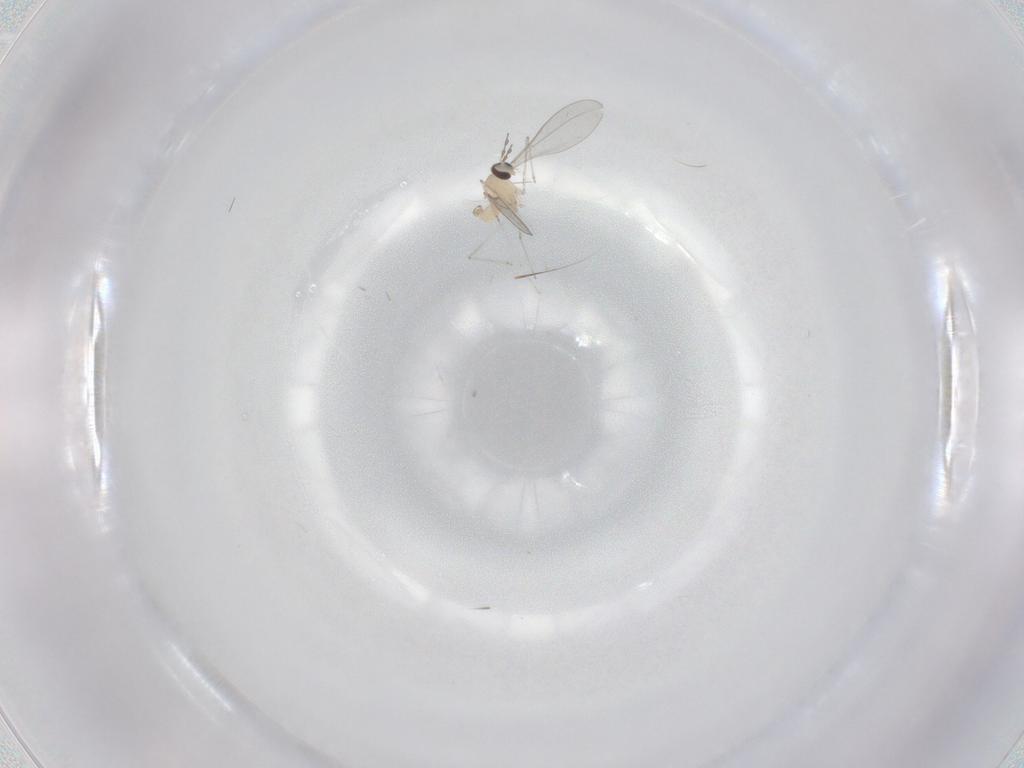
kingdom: Animalia
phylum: Arthropoda
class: Insecta
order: Diptera
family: Cecidomyiidae
